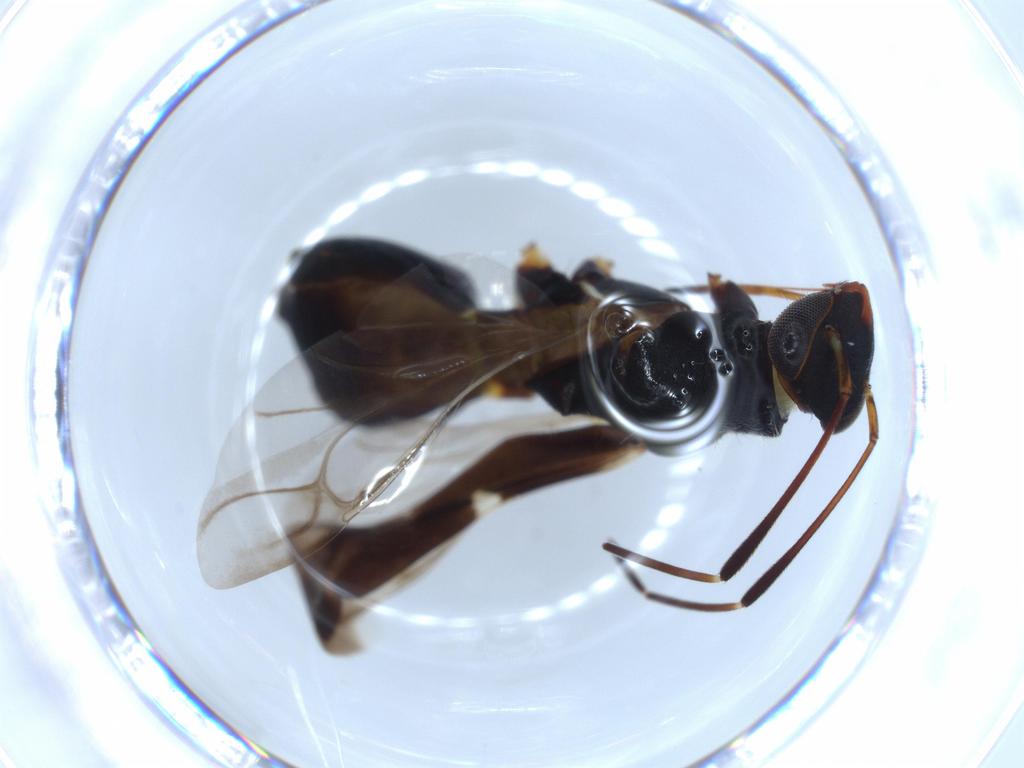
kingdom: Animalia
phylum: Arthropoda
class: Insecta
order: Hemiptera
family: Miridae
